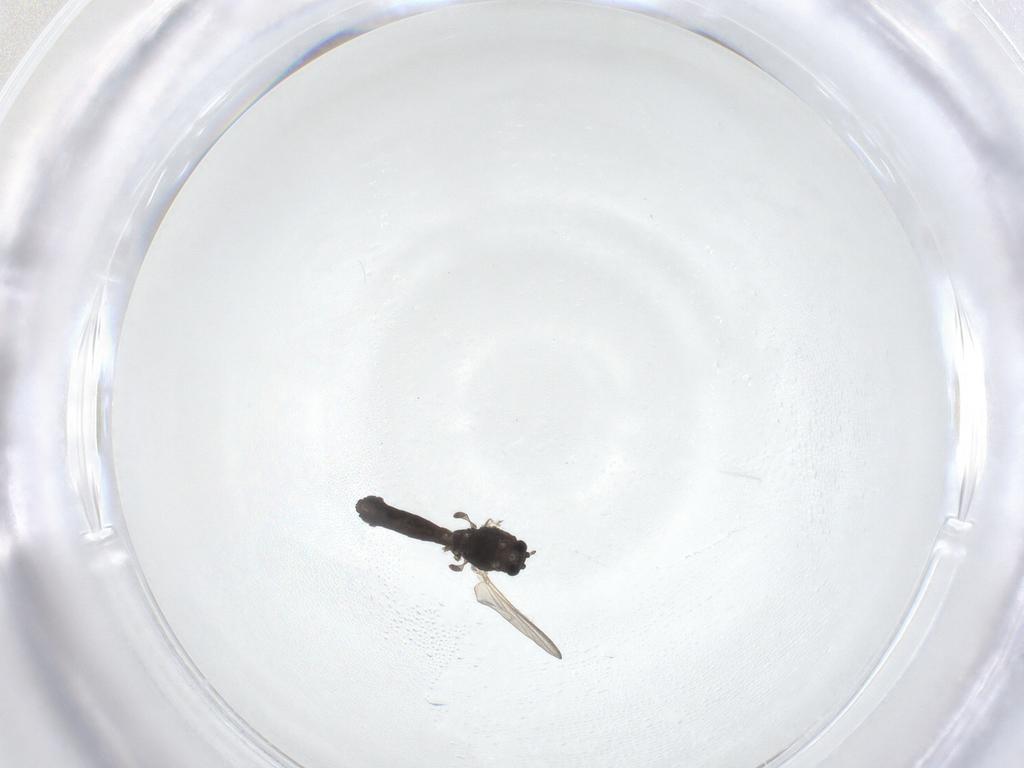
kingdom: Animalia
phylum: Arthropoda
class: Insecta
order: Diptera
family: Chironomidae
